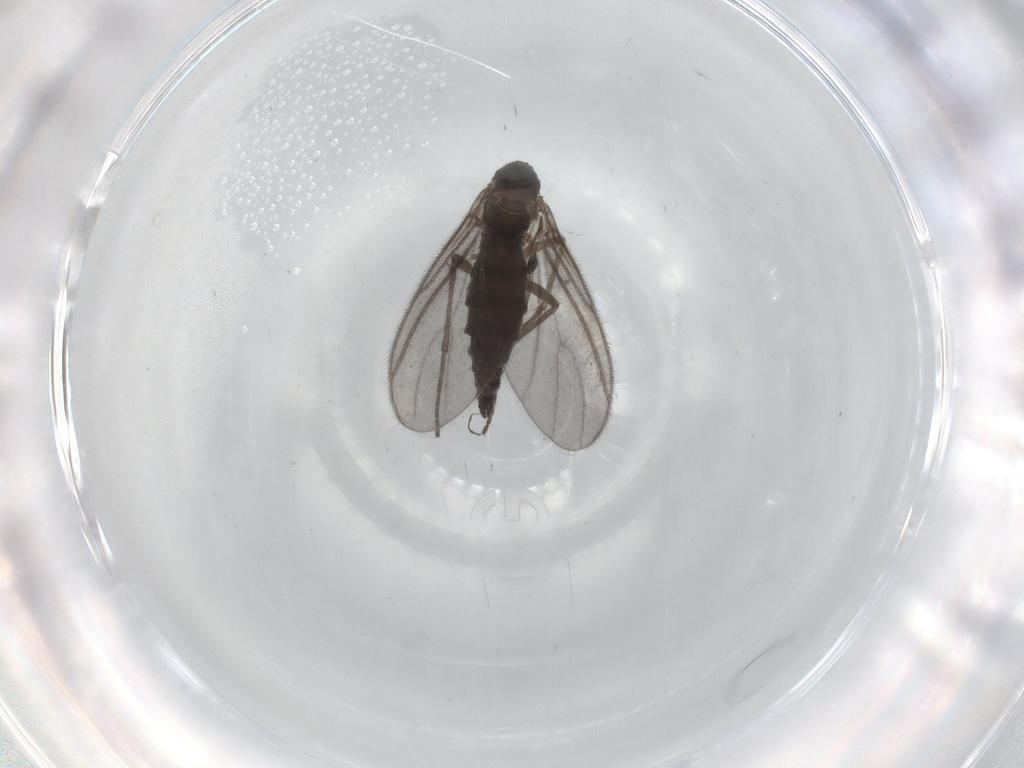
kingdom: Animalia
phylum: Arthropoda
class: Insecta
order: Diptera
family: Sciaridae
